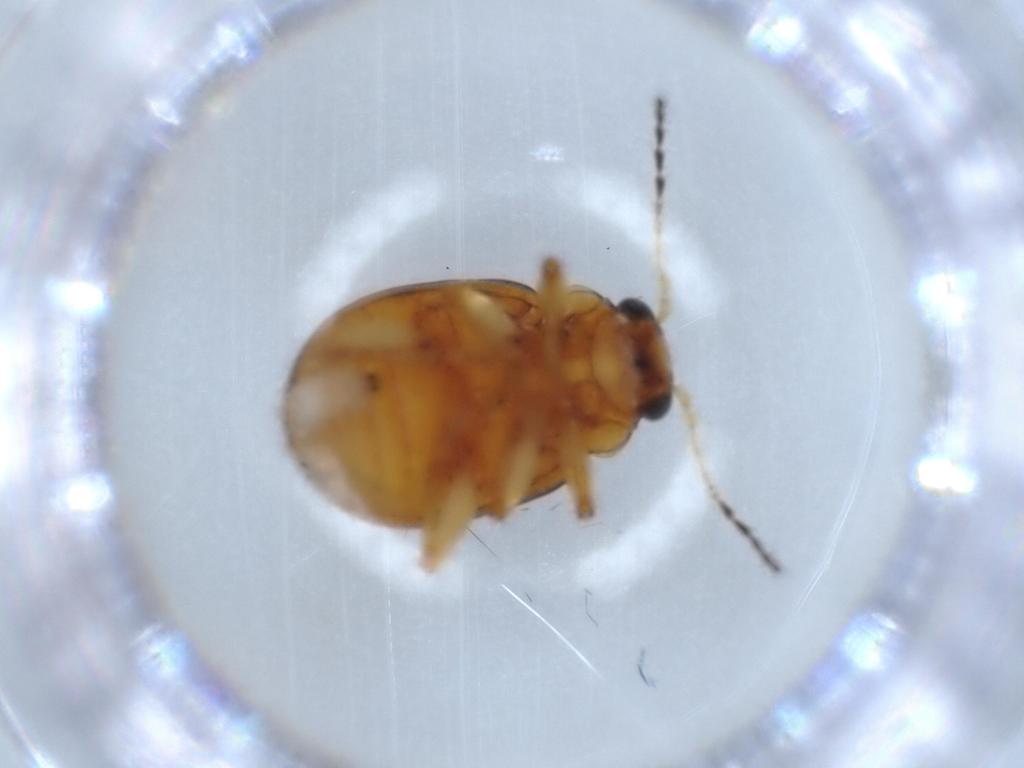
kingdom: Animalia
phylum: Arthropoda
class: Insecta
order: Coleoptera
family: Chrysomelidae
